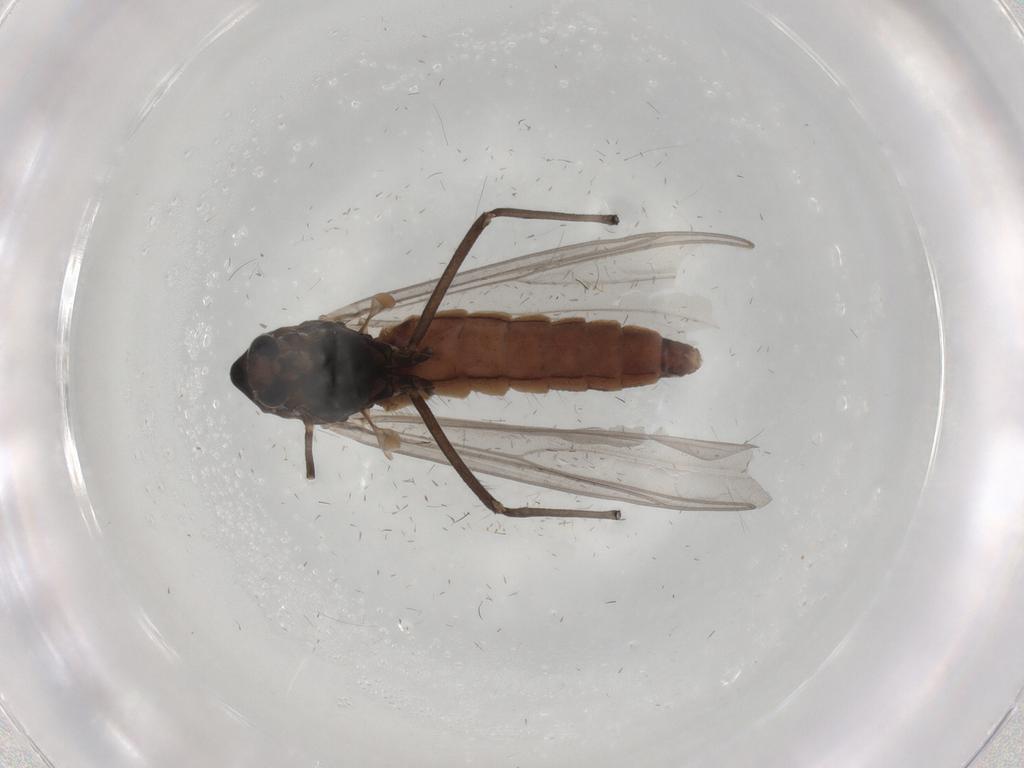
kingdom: Animalia
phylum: Arthropoda
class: Insecta
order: Diptera
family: Chironomidae
